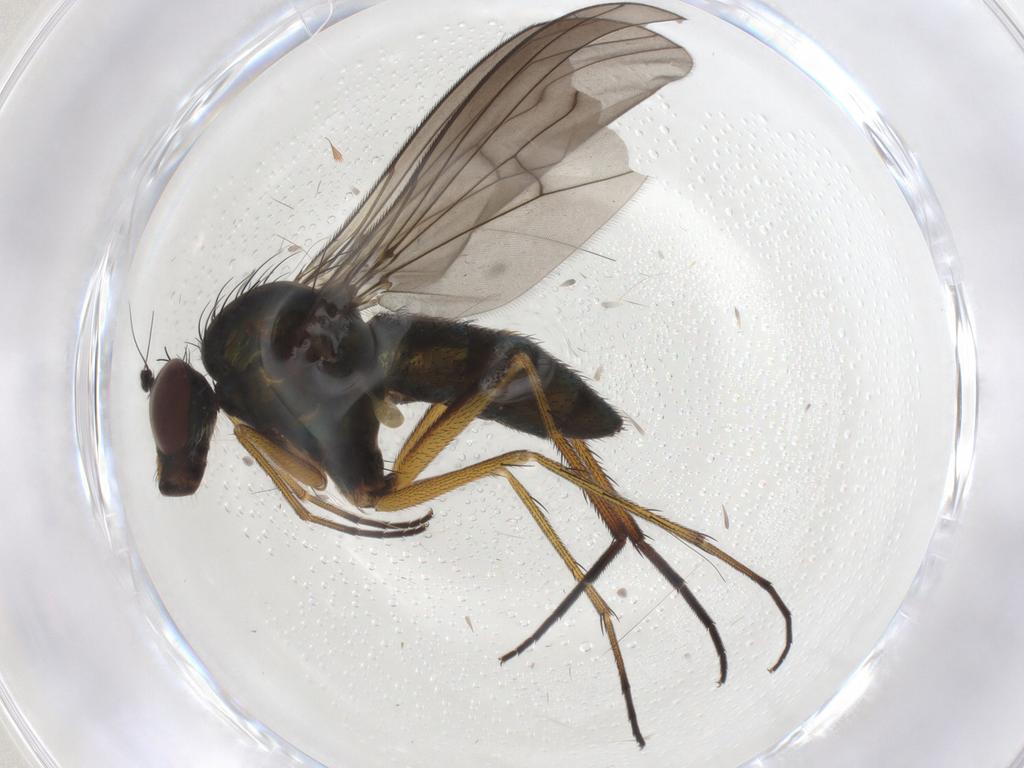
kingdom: Animalia
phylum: Arthropoda
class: Insecta
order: Diptera
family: Dolichopodidae
